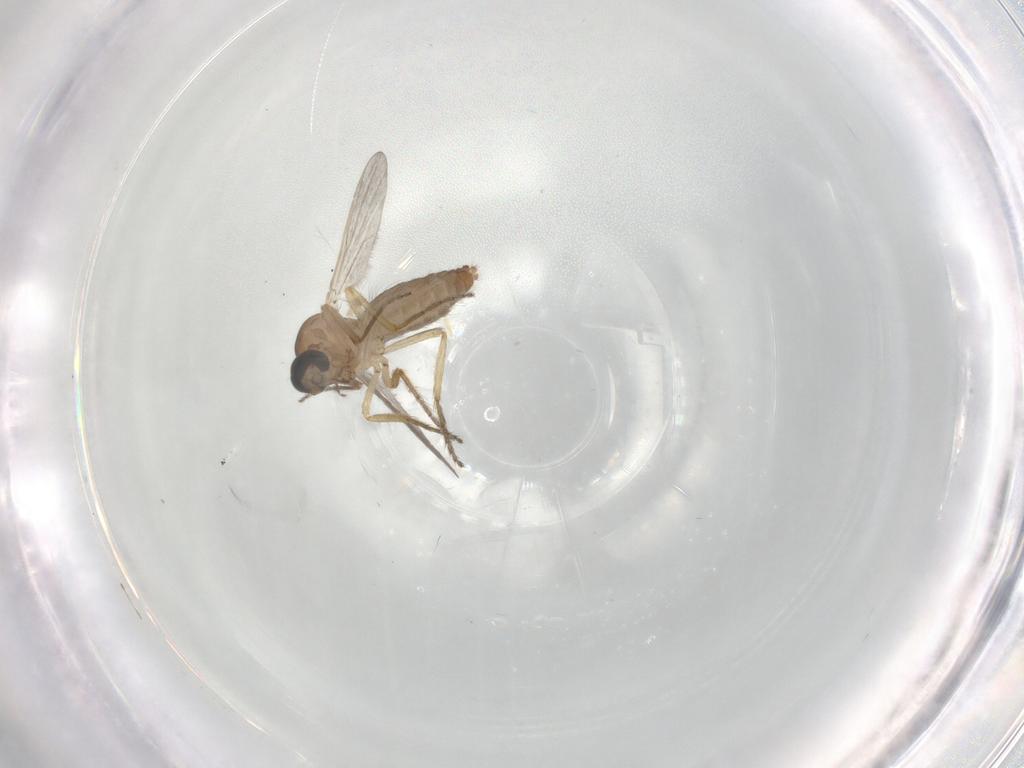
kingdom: Animalia
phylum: Arthropoda
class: Insecta
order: Diptera
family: Ceratopogonidae
